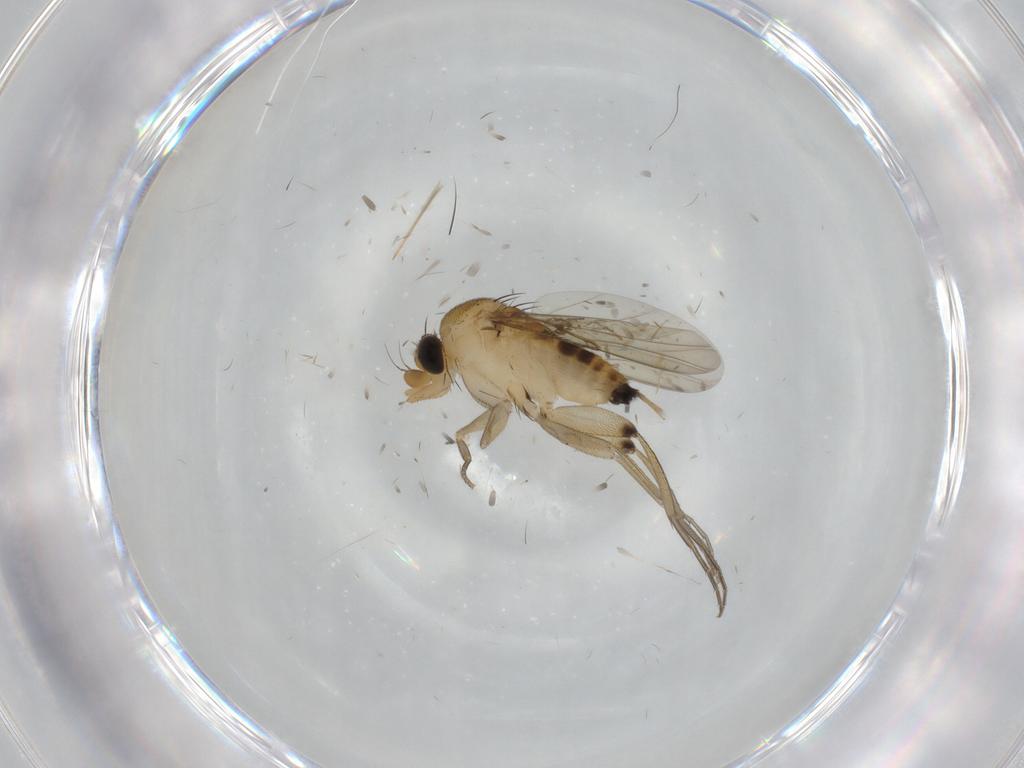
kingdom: Animalia
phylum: Arthropoda
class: Insecta
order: Diptera
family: Phoridae
